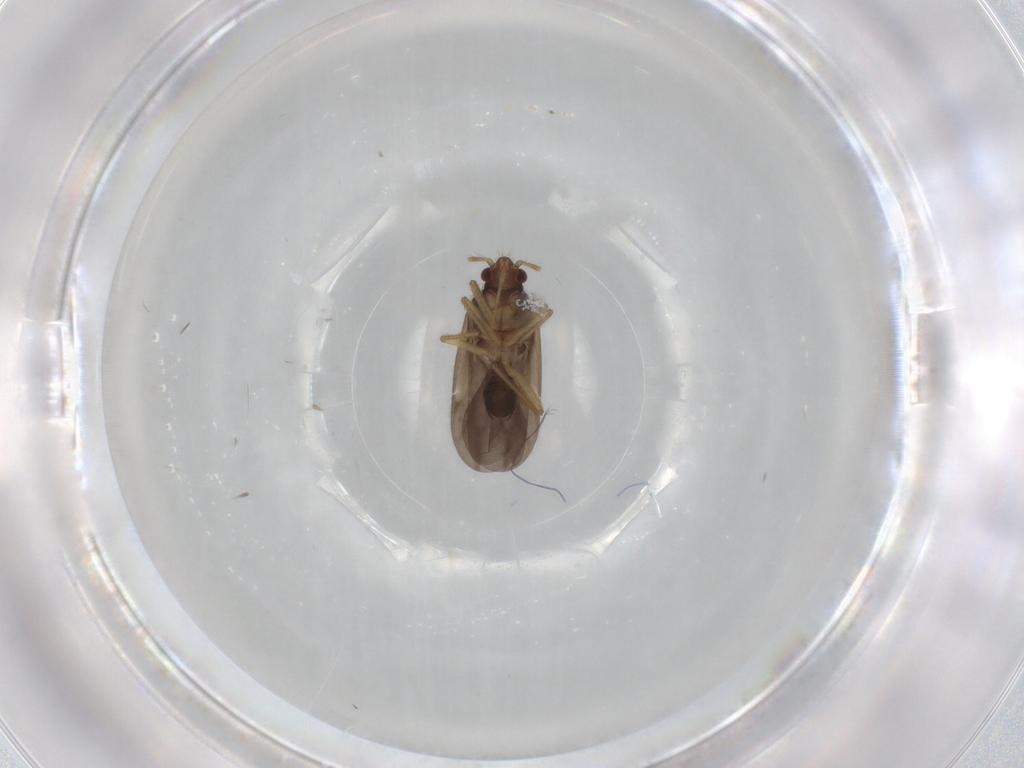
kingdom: Animalia
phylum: Arthropoda
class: Insecta
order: Hemiptera
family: Ceratocombidae
